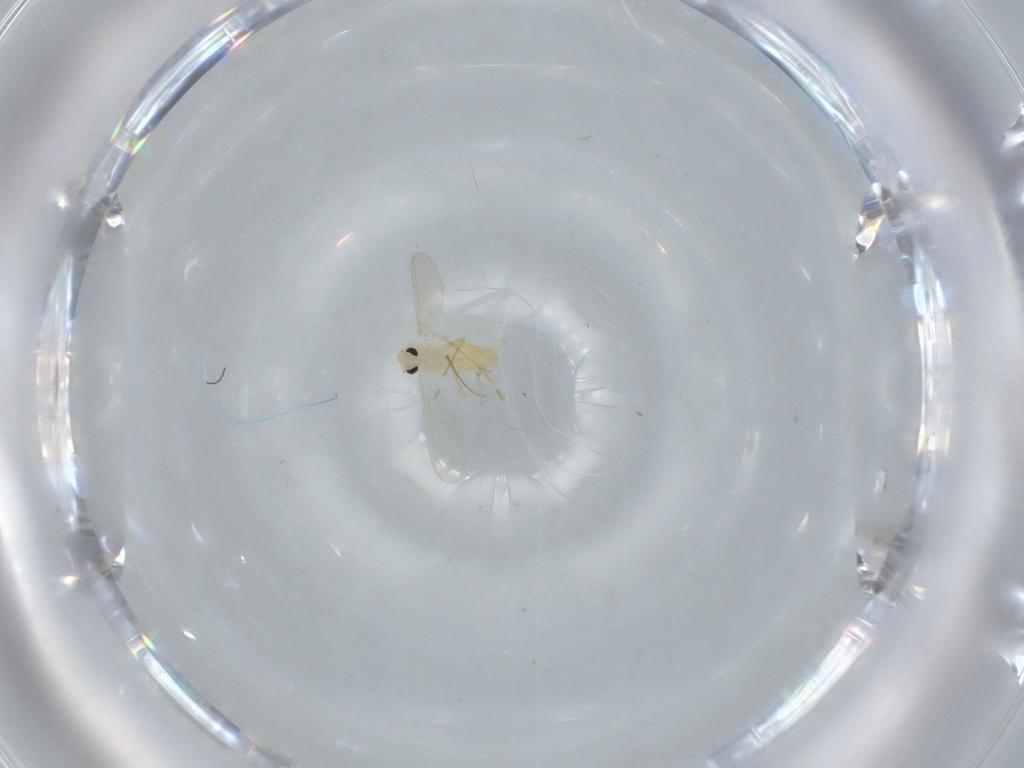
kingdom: Animalia
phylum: Arthropoda
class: Insecta
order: Diptera
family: Chironomidae
